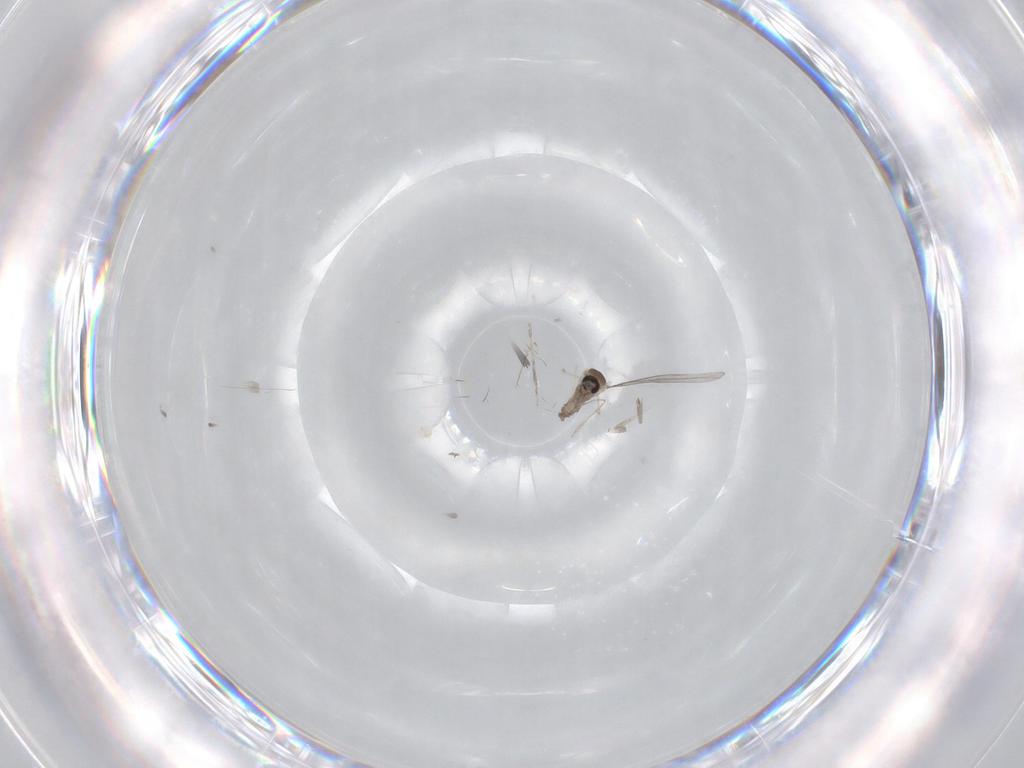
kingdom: Animalia
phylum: Arthropoda
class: Insecta
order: Diptera
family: Cecidomyiidae
